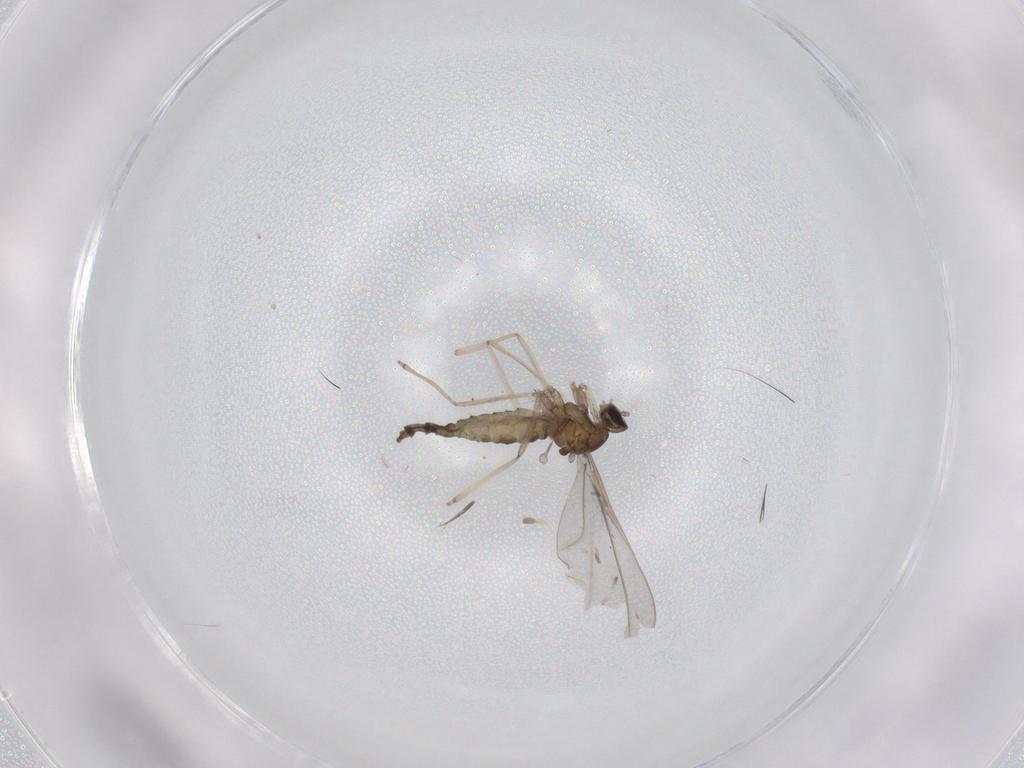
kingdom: Animalia
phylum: Arthropoda
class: Insecta
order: Diptera
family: Cecidomyiidae
